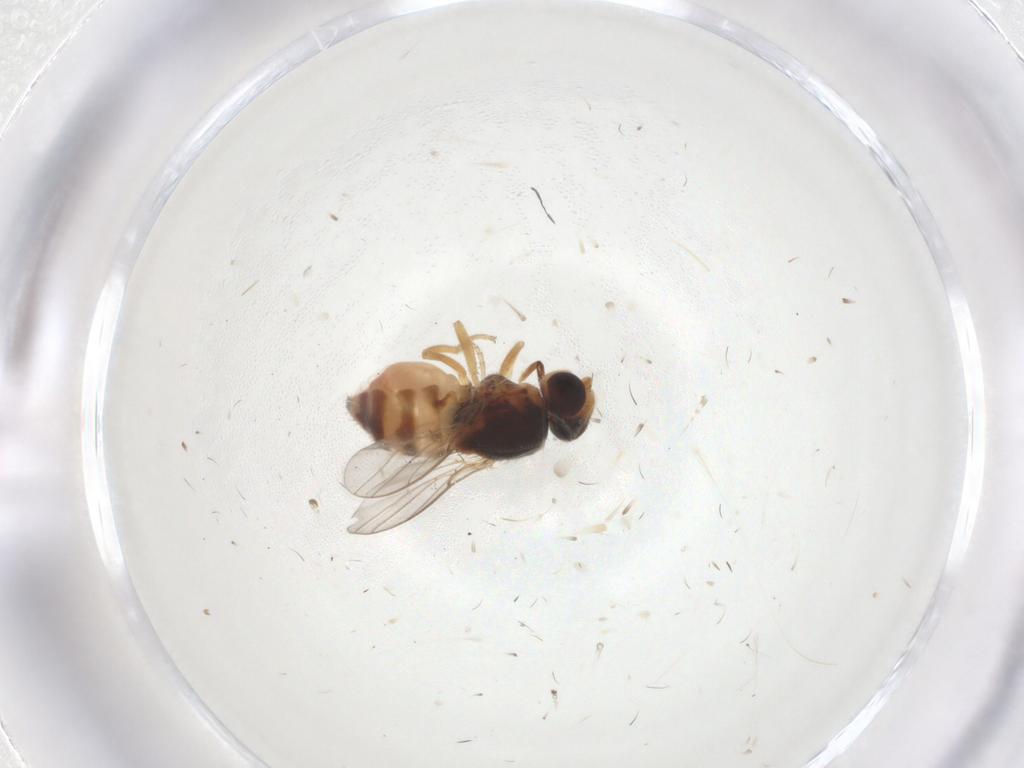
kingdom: Animalia
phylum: Arthropoda
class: Insecta
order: Diptera
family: Chloropidae
